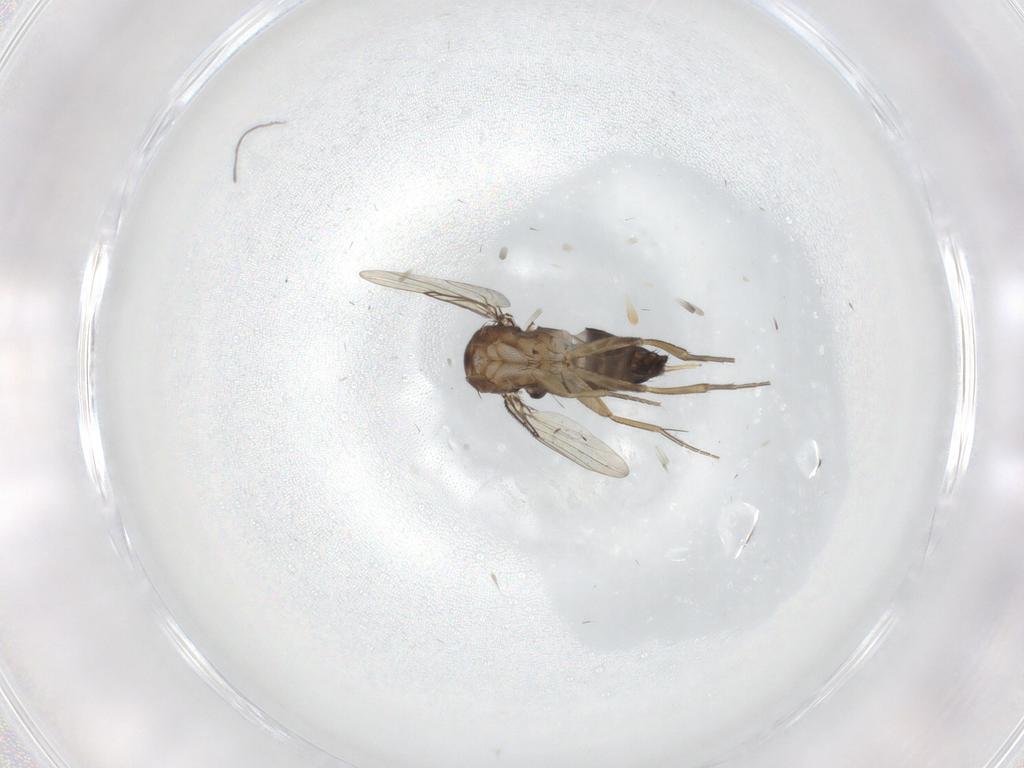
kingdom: Animalia
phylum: Arthropoda
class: Insecta
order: Diptera
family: Phoridae
